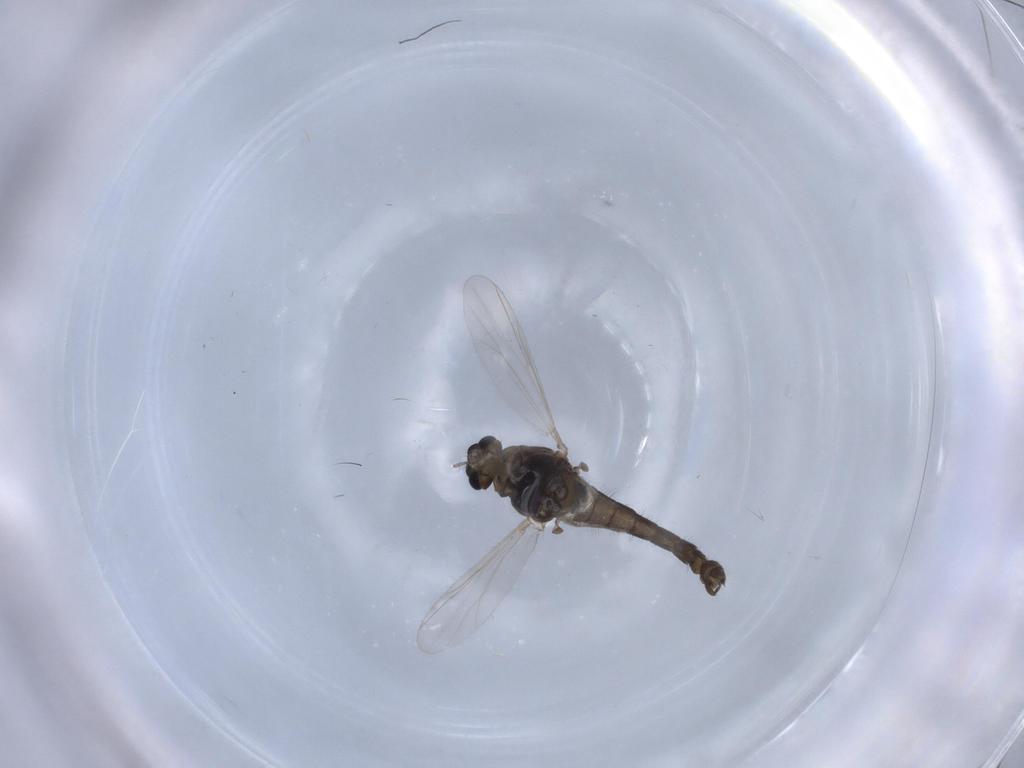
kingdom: Animalia
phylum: Arthropoda
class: Insecta
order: Diptera
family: Chironomidae
